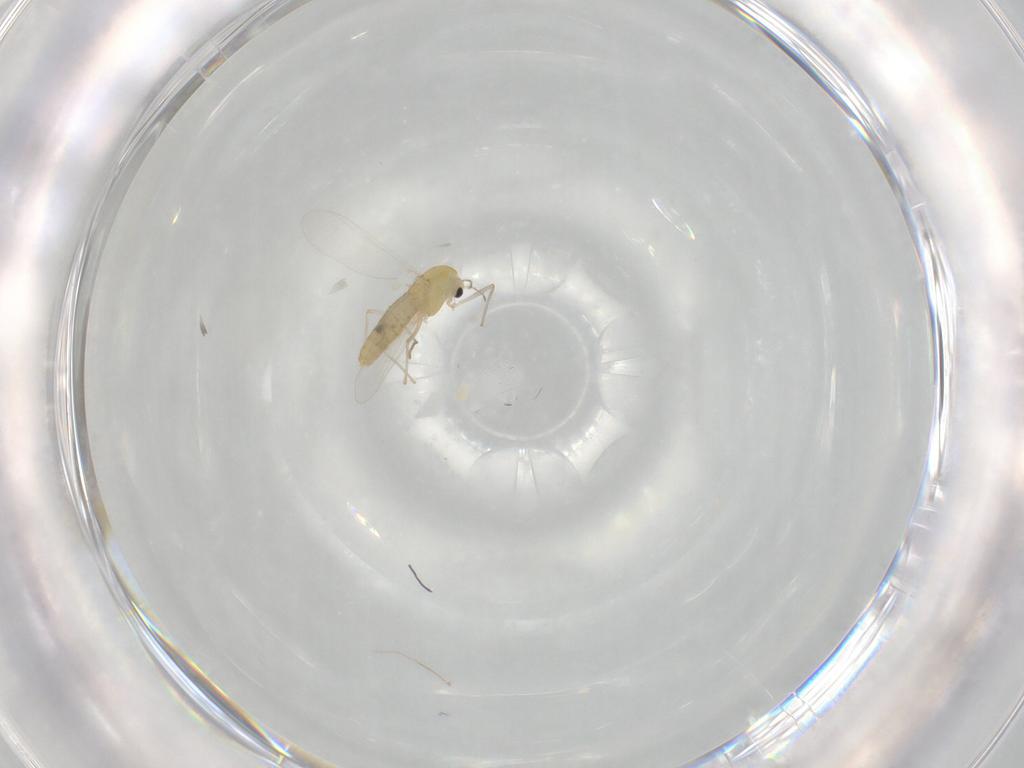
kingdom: Animalia
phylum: Arthropoda
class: Insecta
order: Diptera
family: Chironomidae
